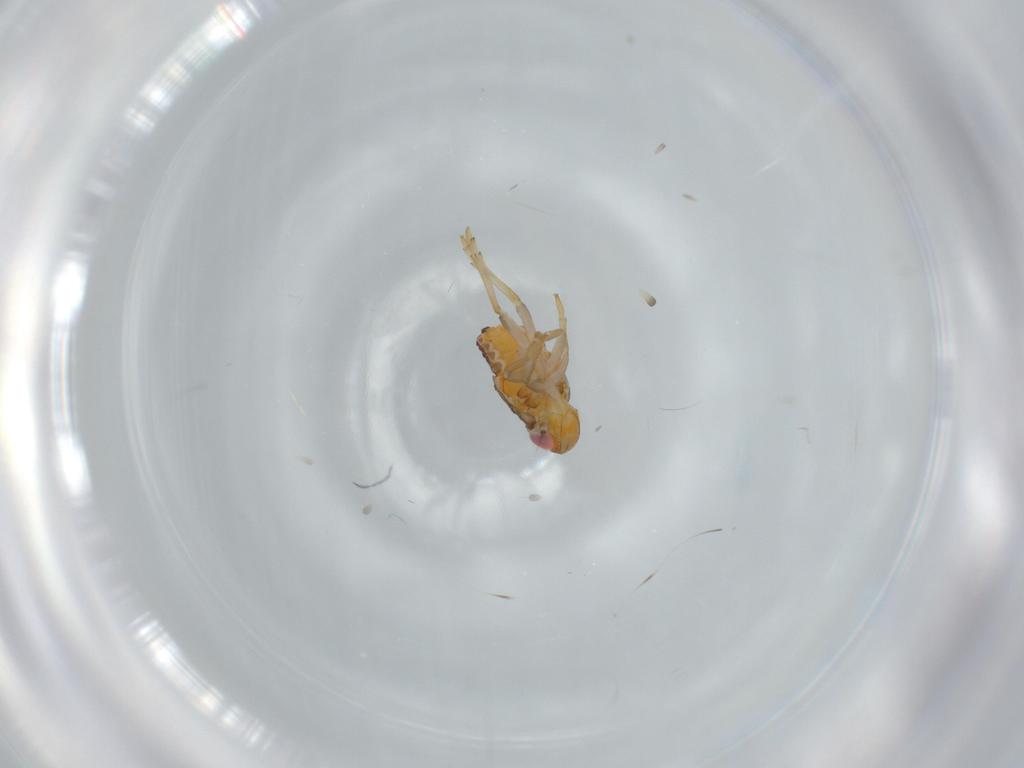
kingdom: Animalia
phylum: Arthropoda
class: Insecta
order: Hemiptera
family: Issidae
